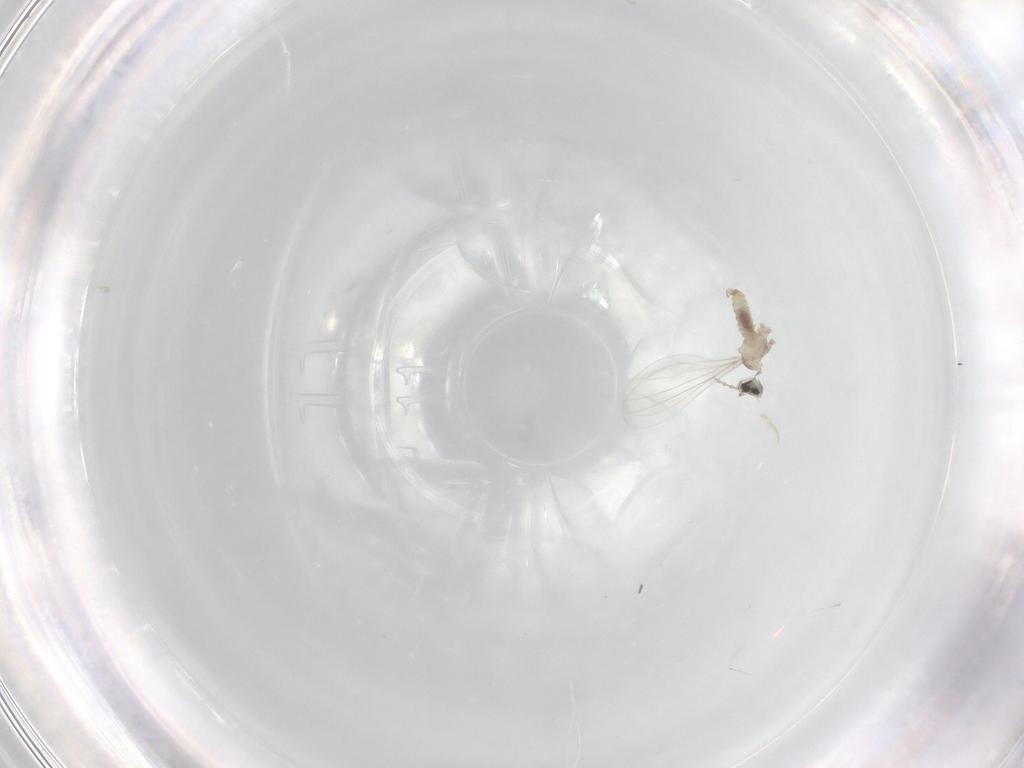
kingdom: Animalia
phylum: Arthropoda
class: Insecta
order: Diptera
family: Cecidomyiidae
